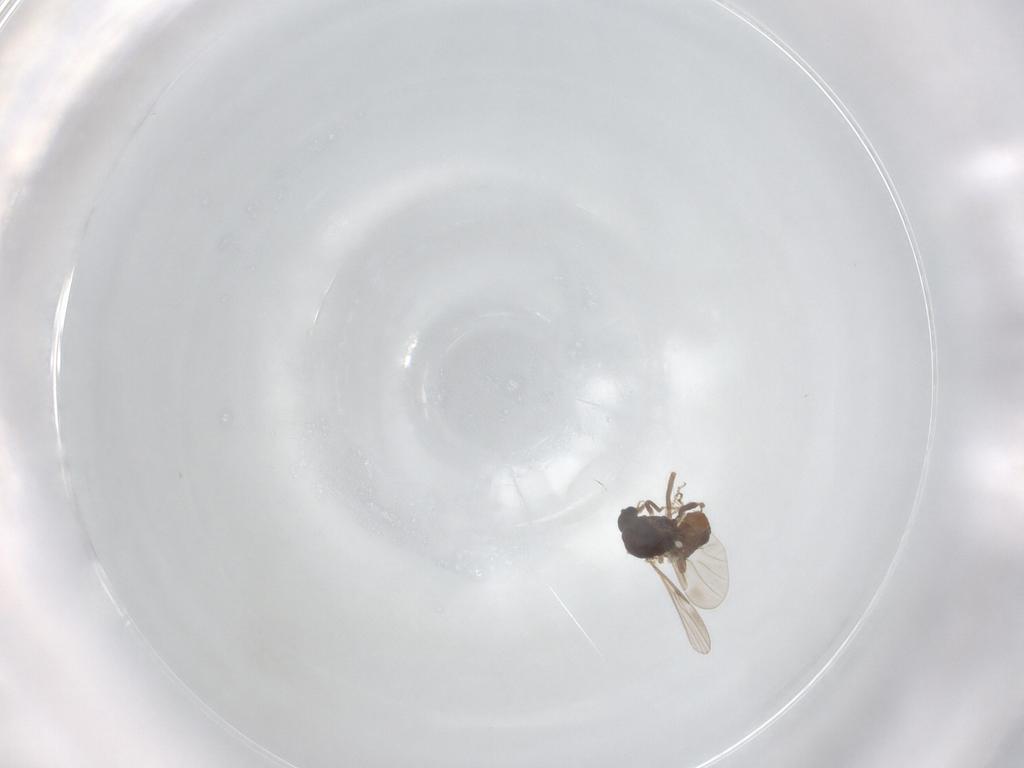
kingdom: Animalia
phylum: Arthropoda
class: Insecta
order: Diptera
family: Ceratopogonidae
